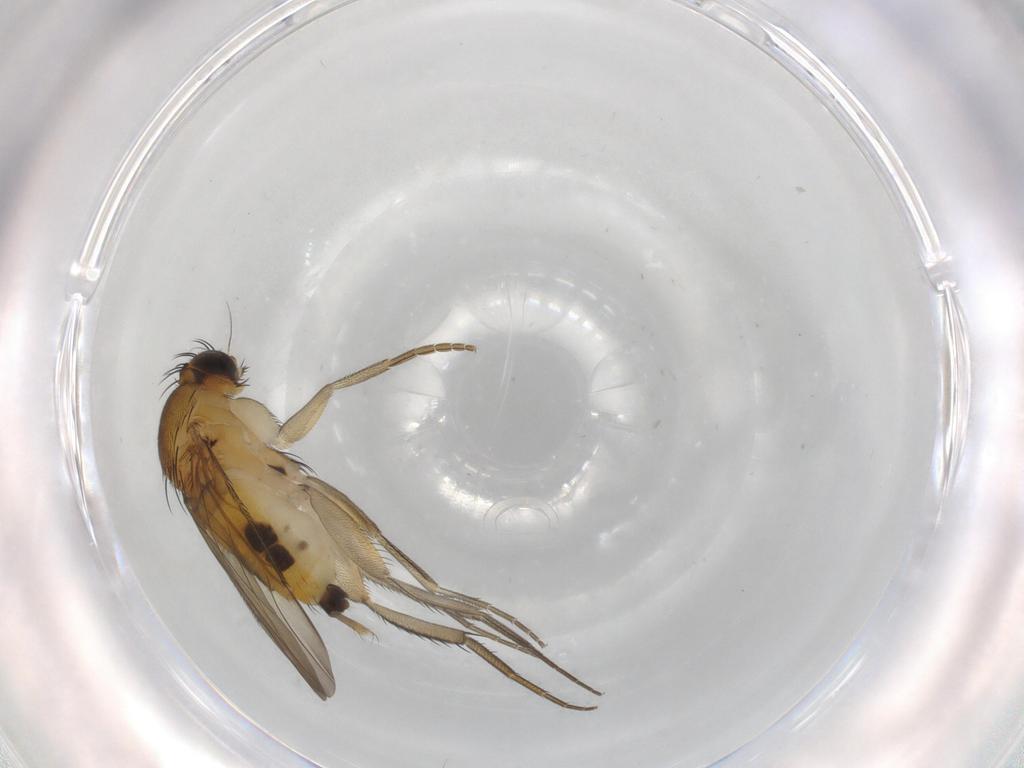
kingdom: Animalia
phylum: Arthropoda
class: Insecta
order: Diptera
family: Phoridae
